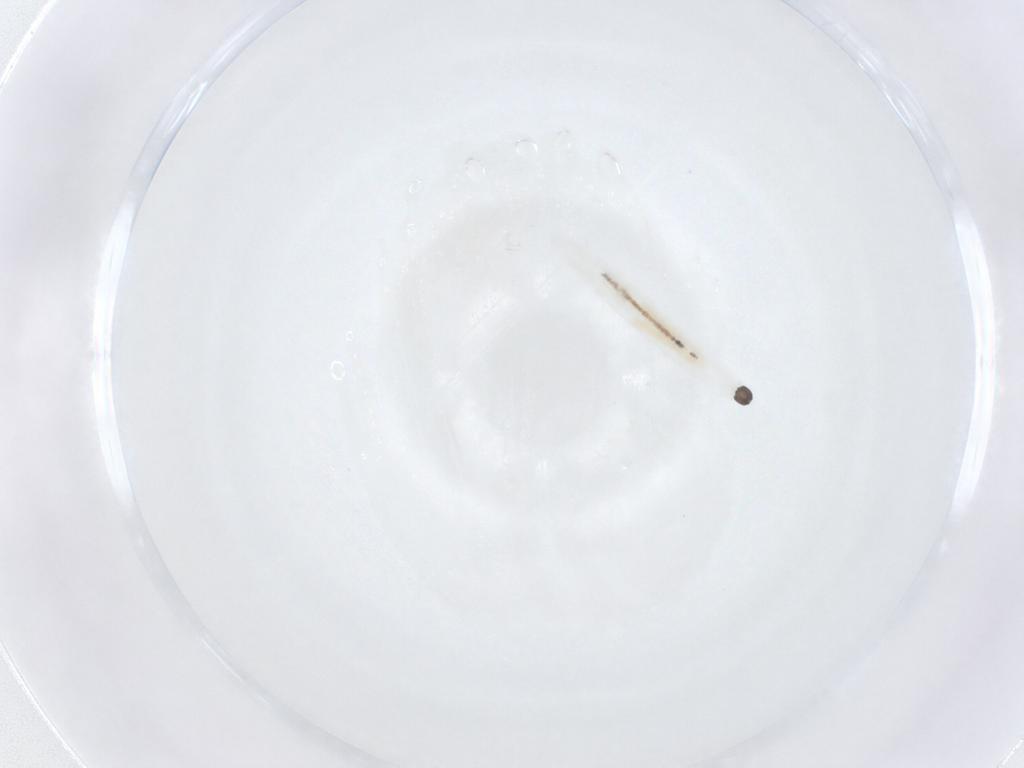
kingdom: Animalia
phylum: Arthropoda
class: Insecta
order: Diptera
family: Sciaridae
